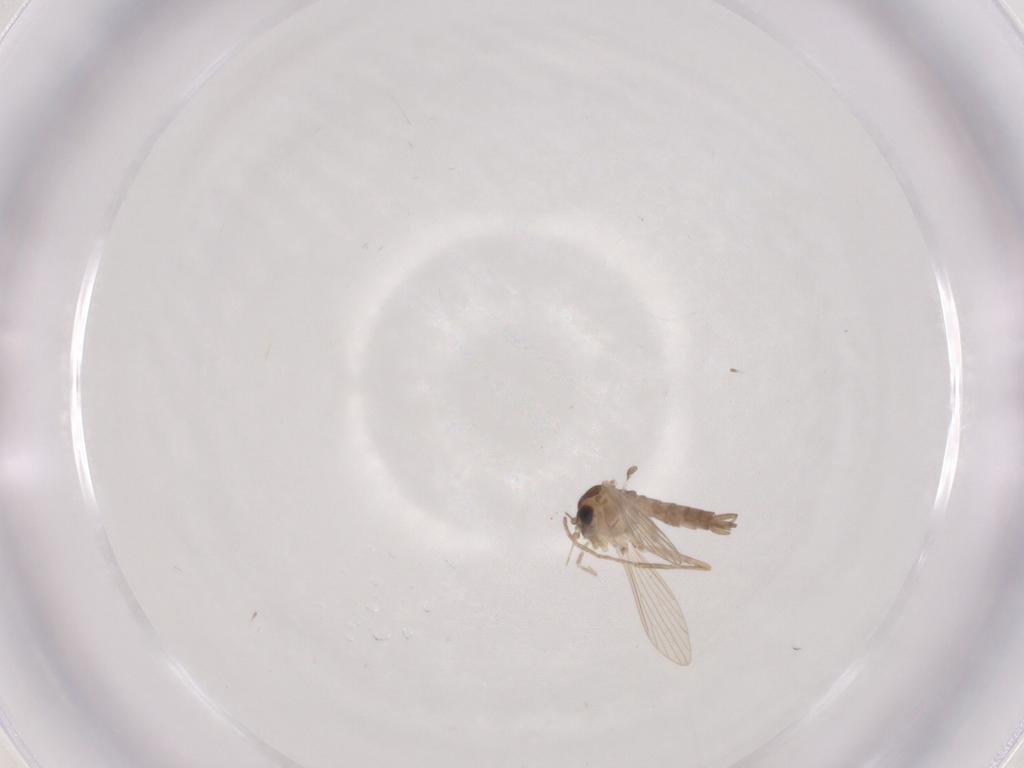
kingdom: Animalia
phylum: Arthropoda
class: Insecta
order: Diptera
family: Psychodidae
